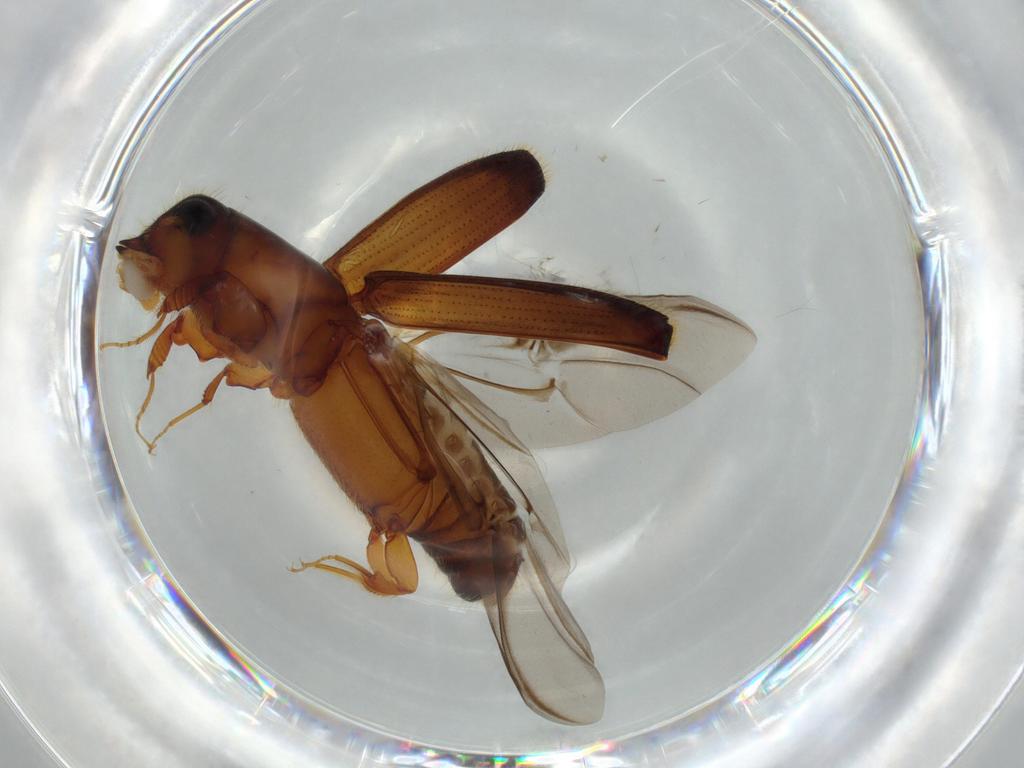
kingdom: Animalia
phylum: Arthropoda
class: Insecta
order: Coleoptera
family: Curculionidae
